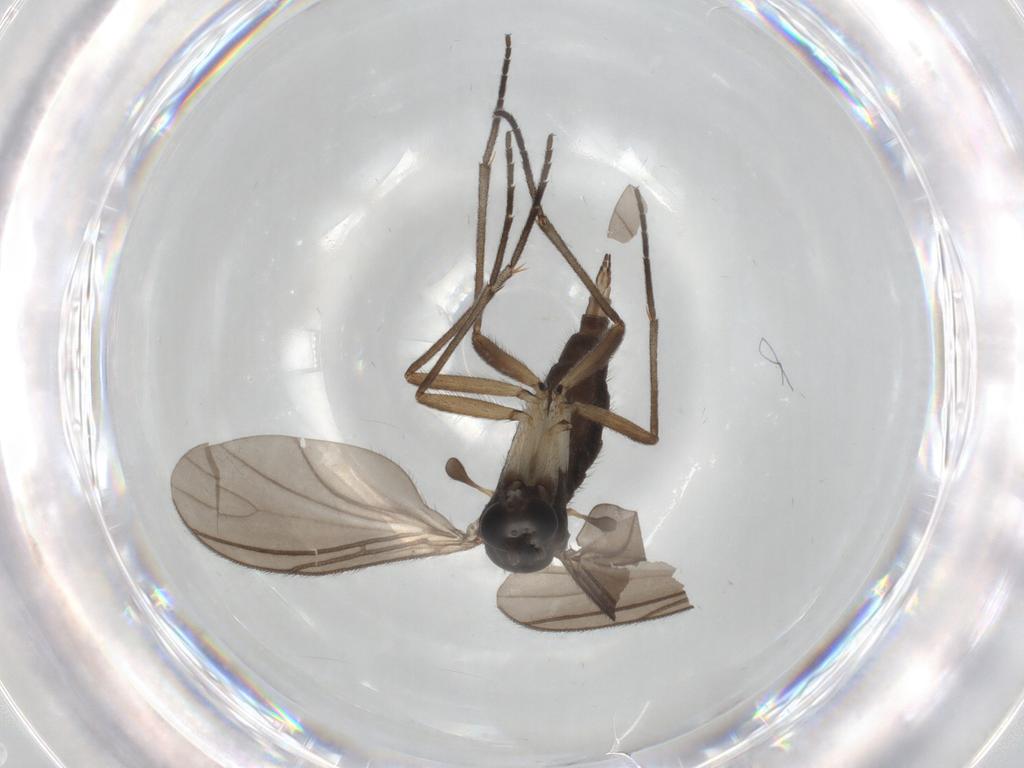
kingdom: Animalia
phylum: Arthropoda
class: Insecta
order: Diptera
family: Sciaridae
